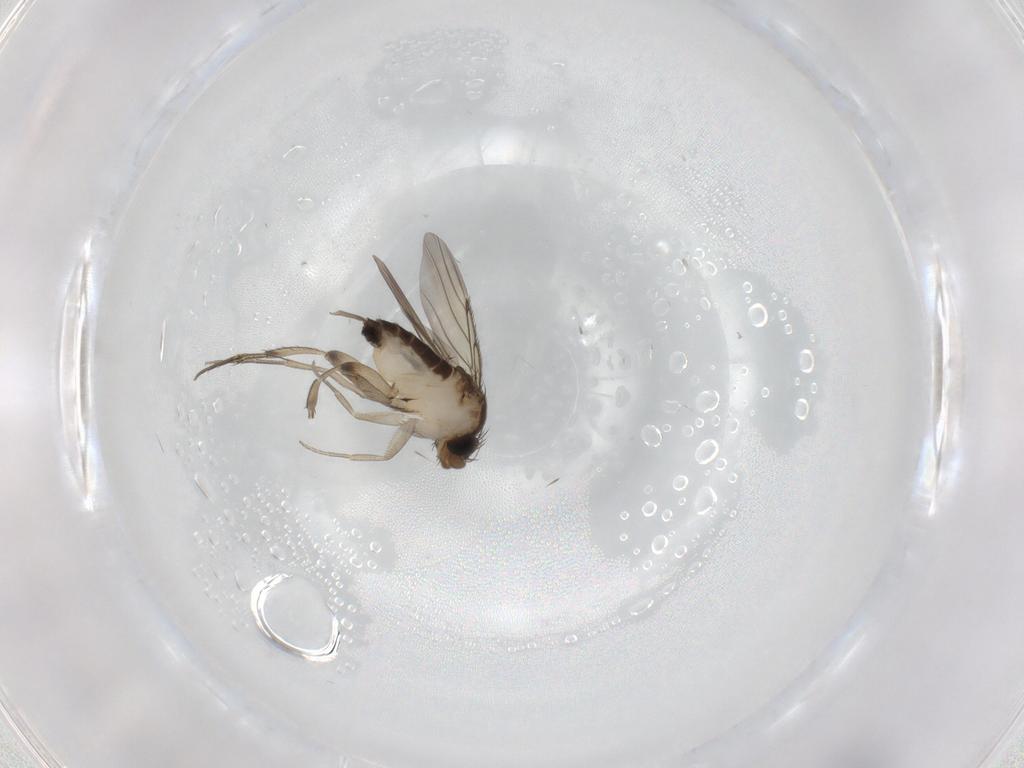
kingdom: Animalia
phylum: Arthropoda
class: Insecta
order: Diptera
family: Phoridae
